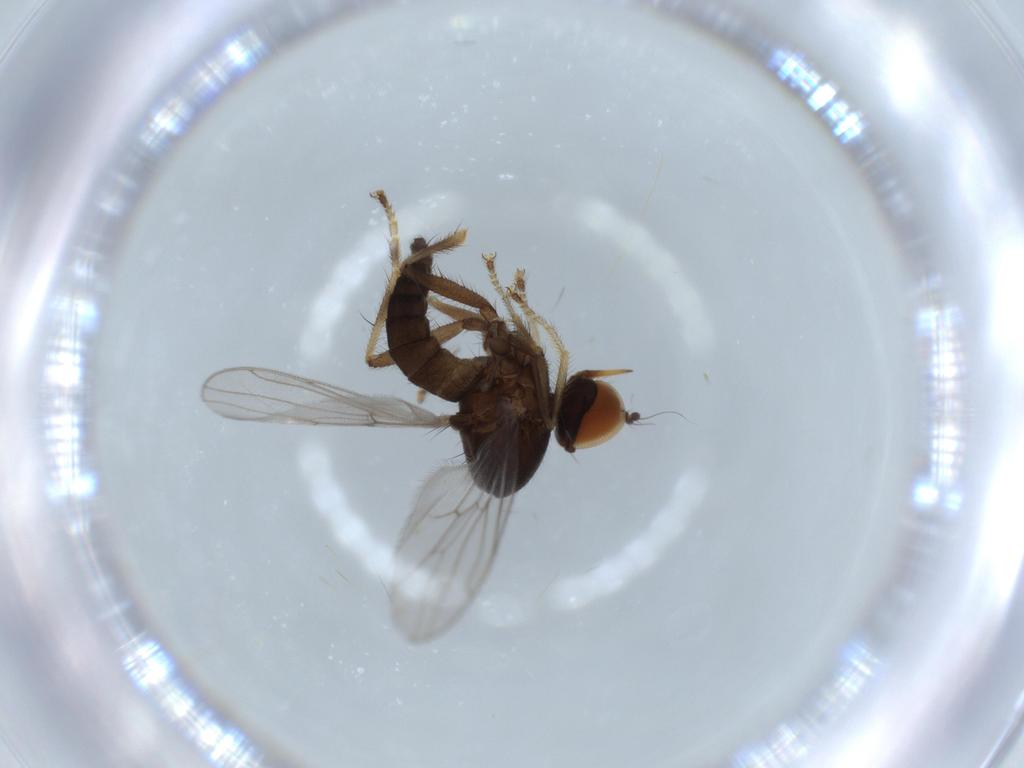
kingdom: Animalia
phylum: Arthropoda
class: Insecta
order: Diptera
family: Hybotidae
